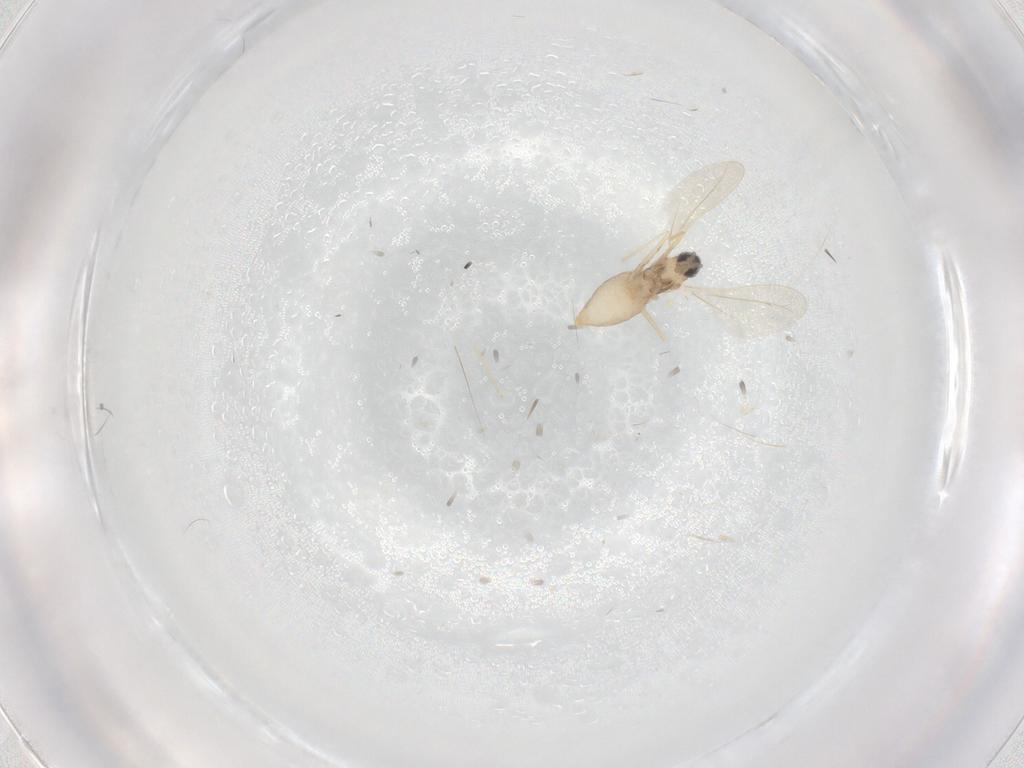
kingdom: Animalia
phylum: Arthropoda
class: Insecta
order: Diptera
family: Cecidomyiidae
